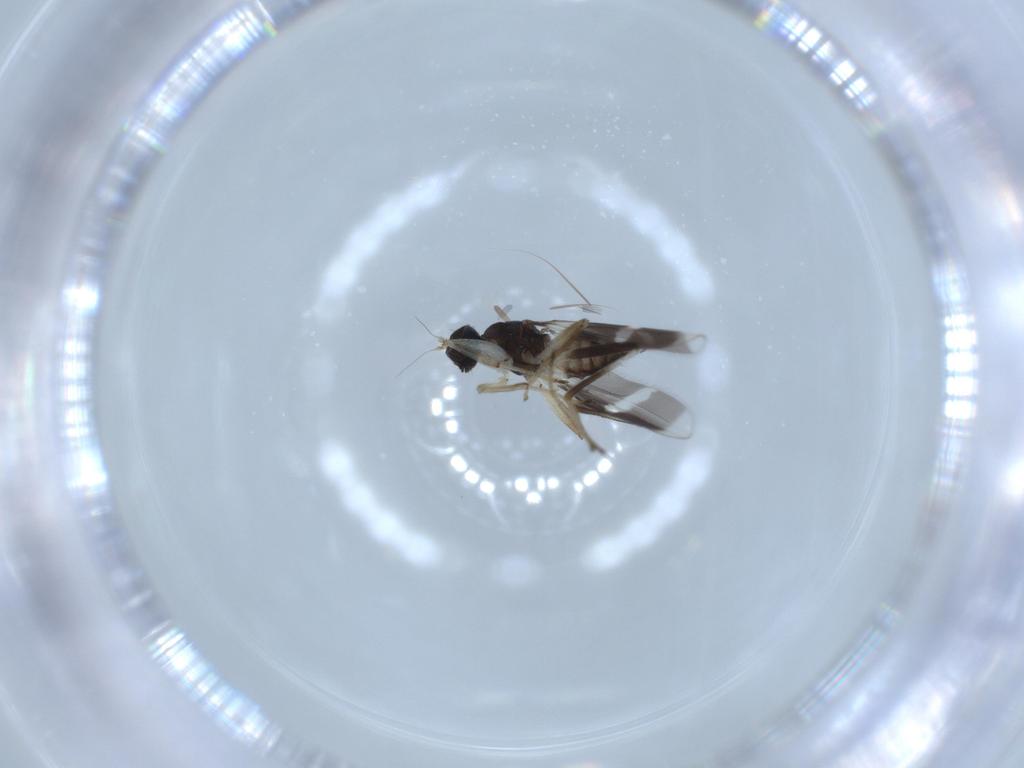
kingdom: Animalia
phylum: Arthropoda
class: Insecta
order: Diptera
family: Hybotidae
